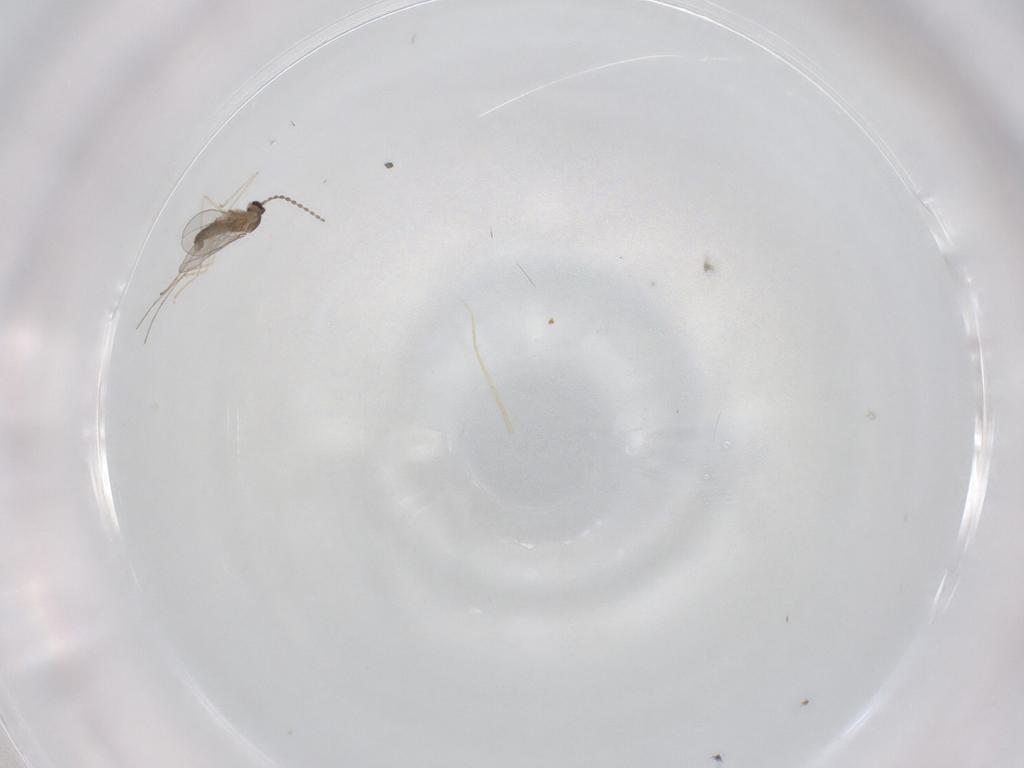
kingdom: Animalia
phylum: Arthropoda
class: Insecta
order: Diptera
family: Cecidomyiidae
